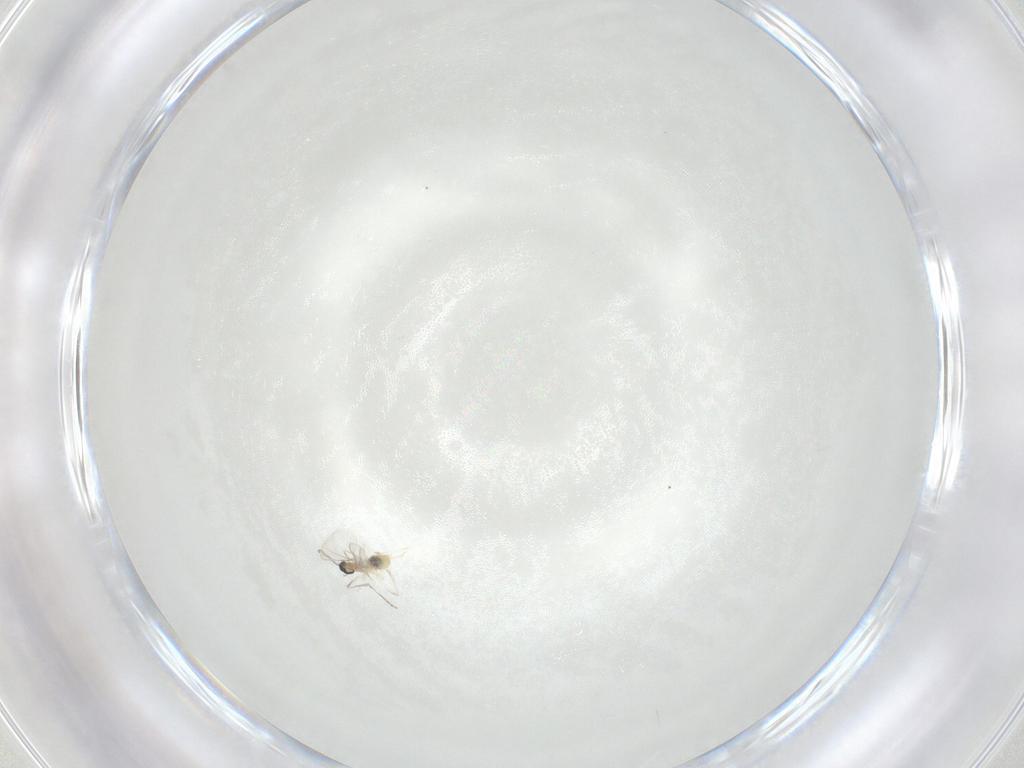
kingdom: Animalia
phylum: Arthropoda
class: Insecta
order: Diptera
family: Cecidomyiidae
